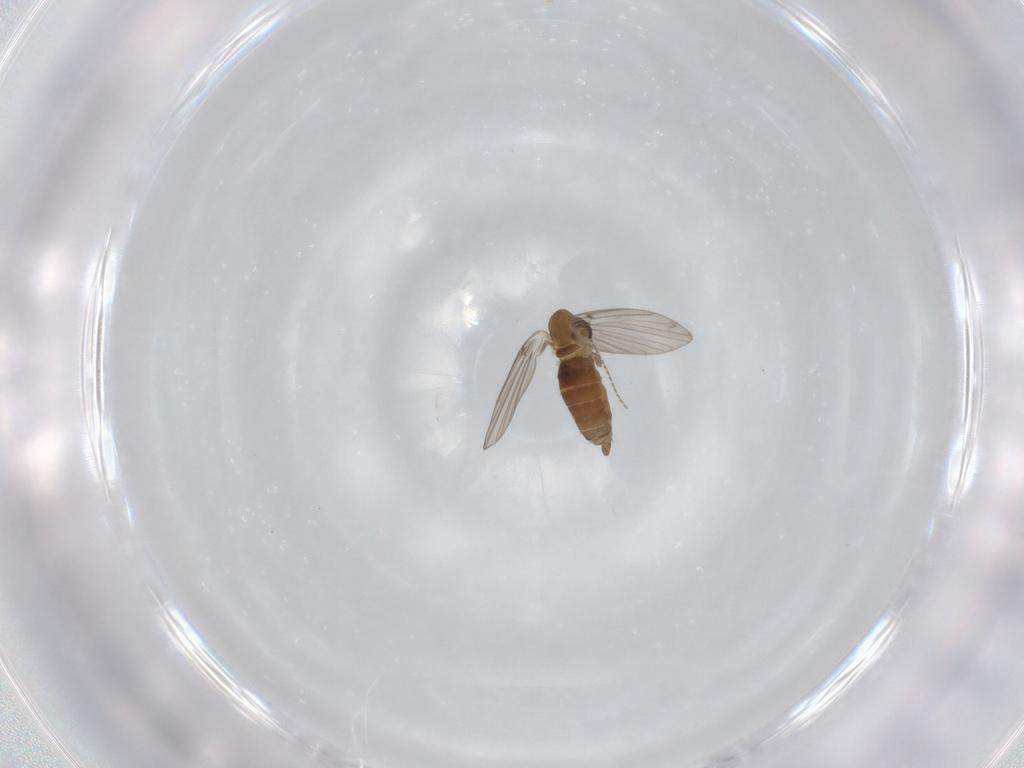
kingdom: Animalia
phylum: Arthropoda
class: Insecta
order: Diptera
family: Psychodidae
